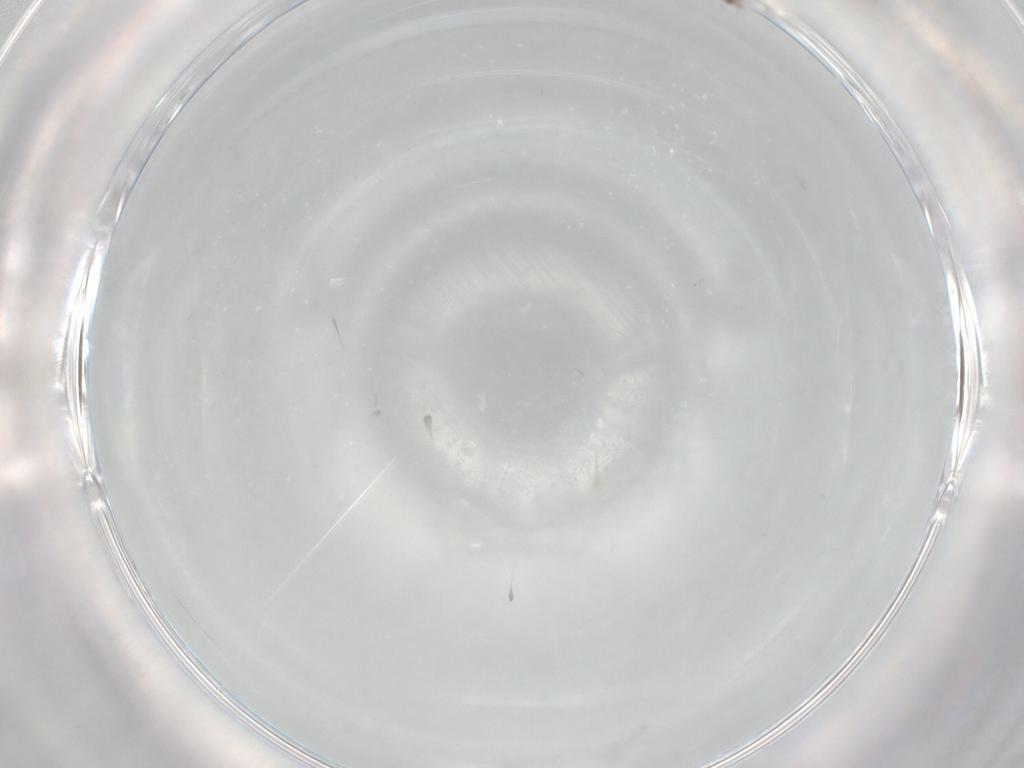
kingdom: Animalia
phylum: Arthropoda
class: Insecta
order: Diptera
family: Cecidomyiidae
